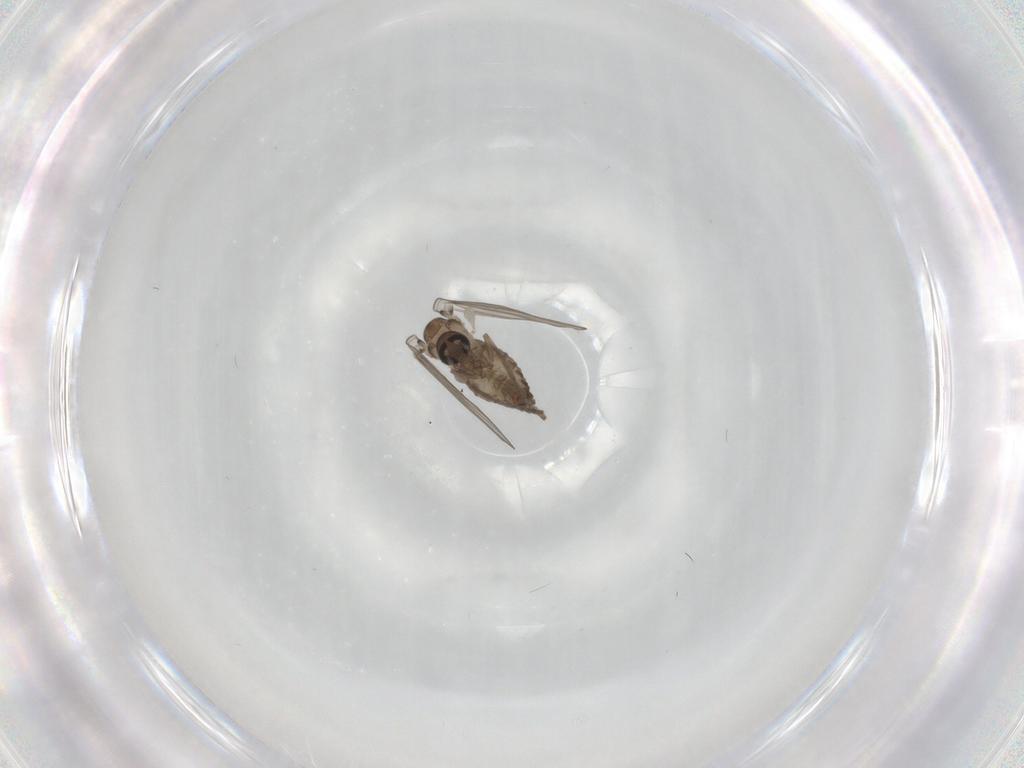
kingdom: Animalia
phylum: Arthropoda
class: Insecta
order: Diptera
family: Psychodidae
